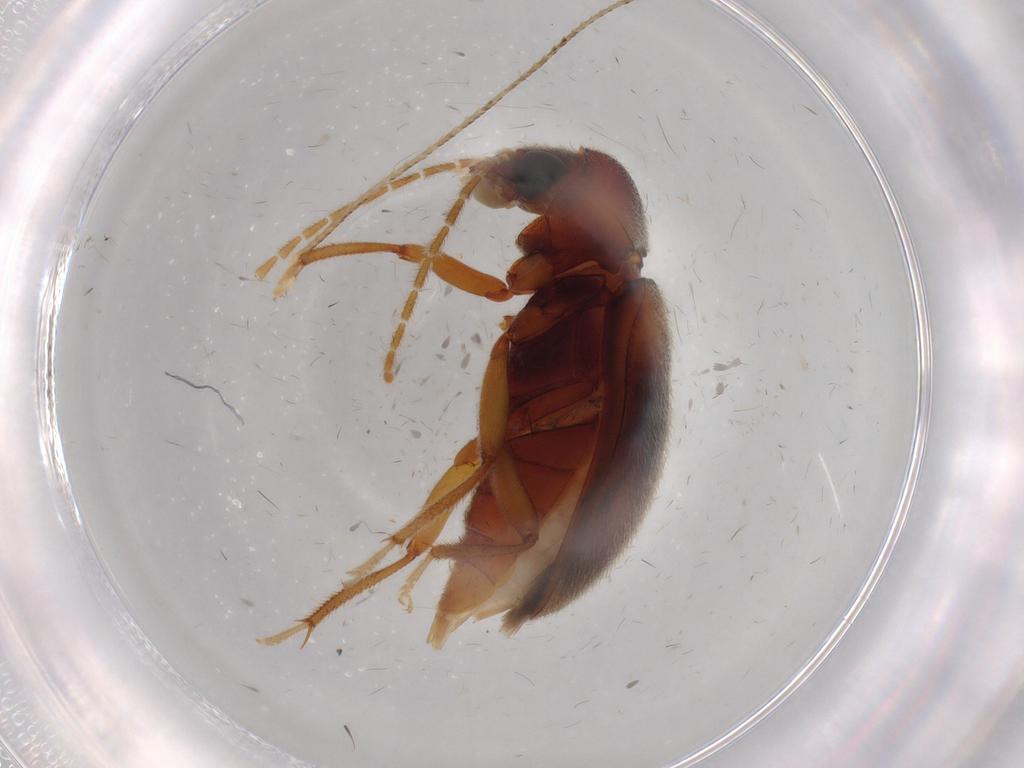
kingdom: Animalia
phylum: Arthropoda
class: Insecta
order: Coleoptera
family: Ptilodactylidae
